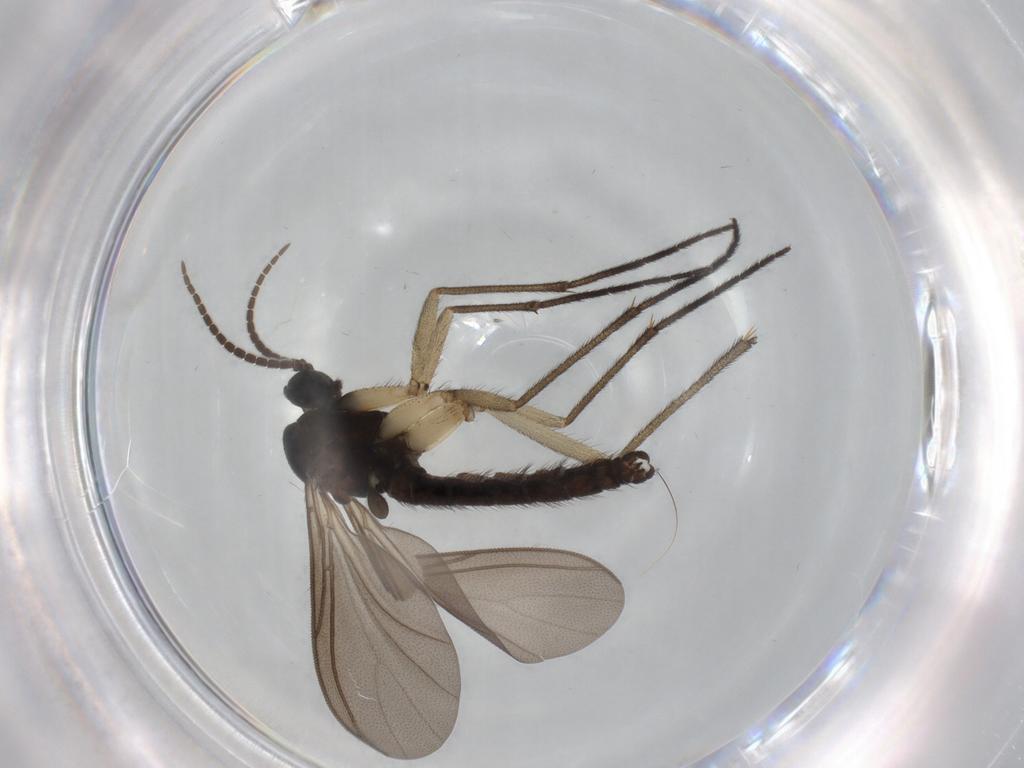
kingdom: Animalia
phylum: Arthropoda
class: Insecta
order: Diptera
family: Sciaridae
